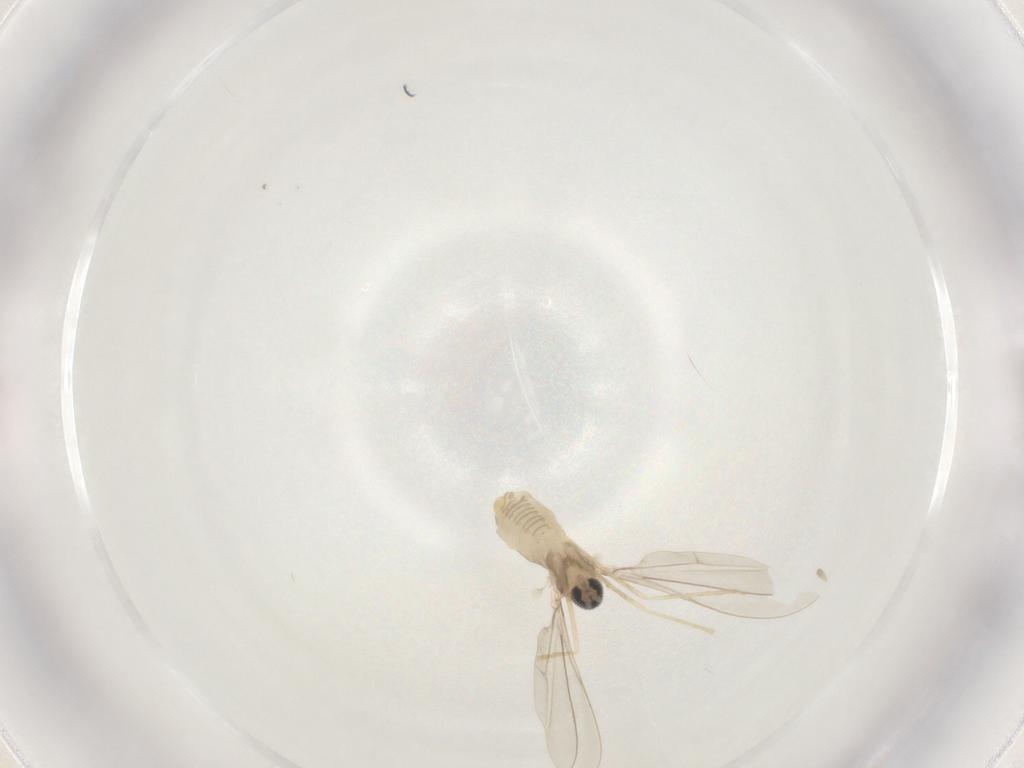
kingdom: Animalia
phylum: Arthropoda
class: Insecta
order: Diptera
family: Cecidomyiidae
